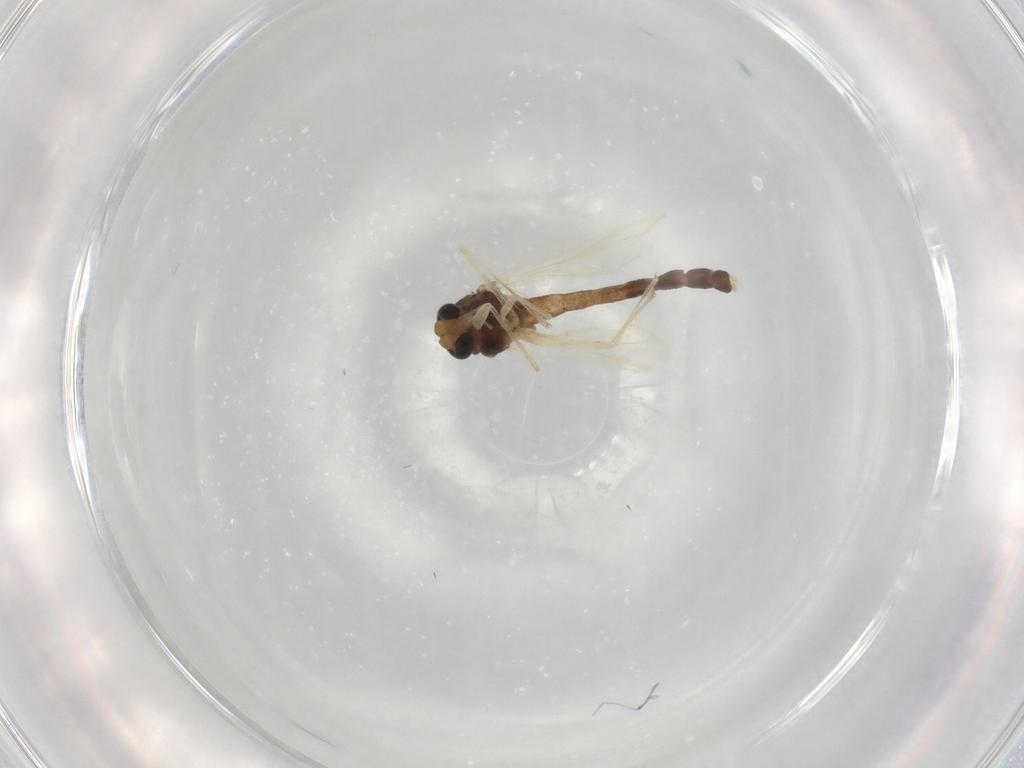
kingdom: Animalia
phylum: Arthropoda
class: Insecta
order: Diptera
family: Chironomidae
